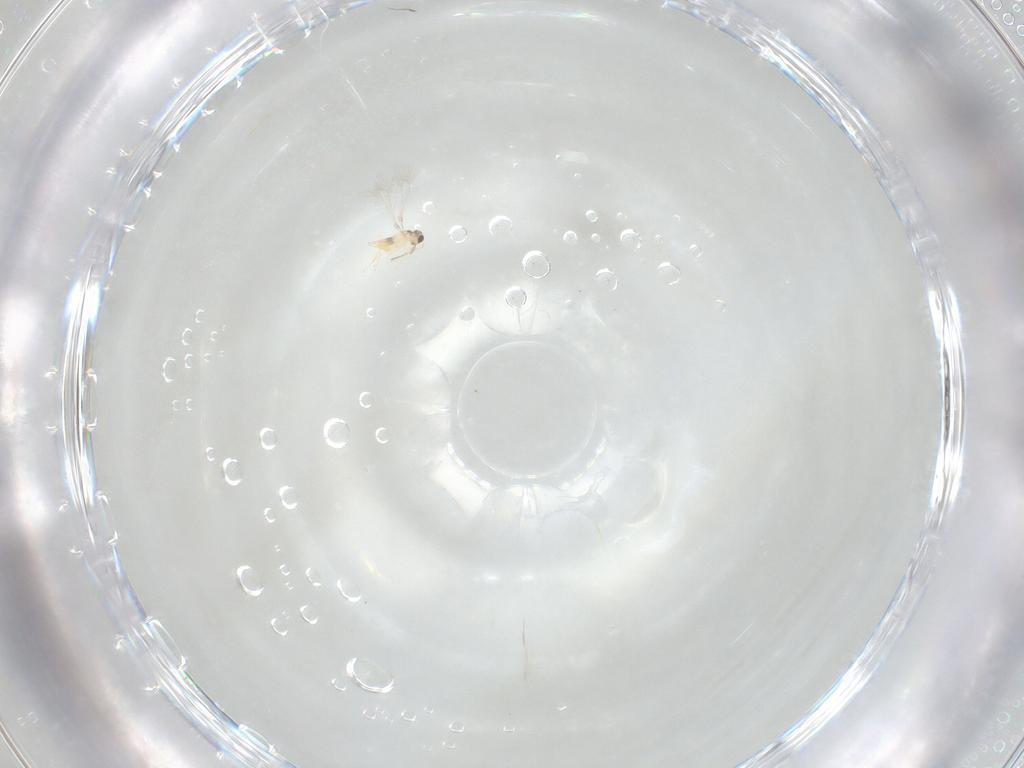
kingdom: Animalia
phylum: Arthropoda
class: Insecta
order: Hymenoptera
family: Mymaridae
